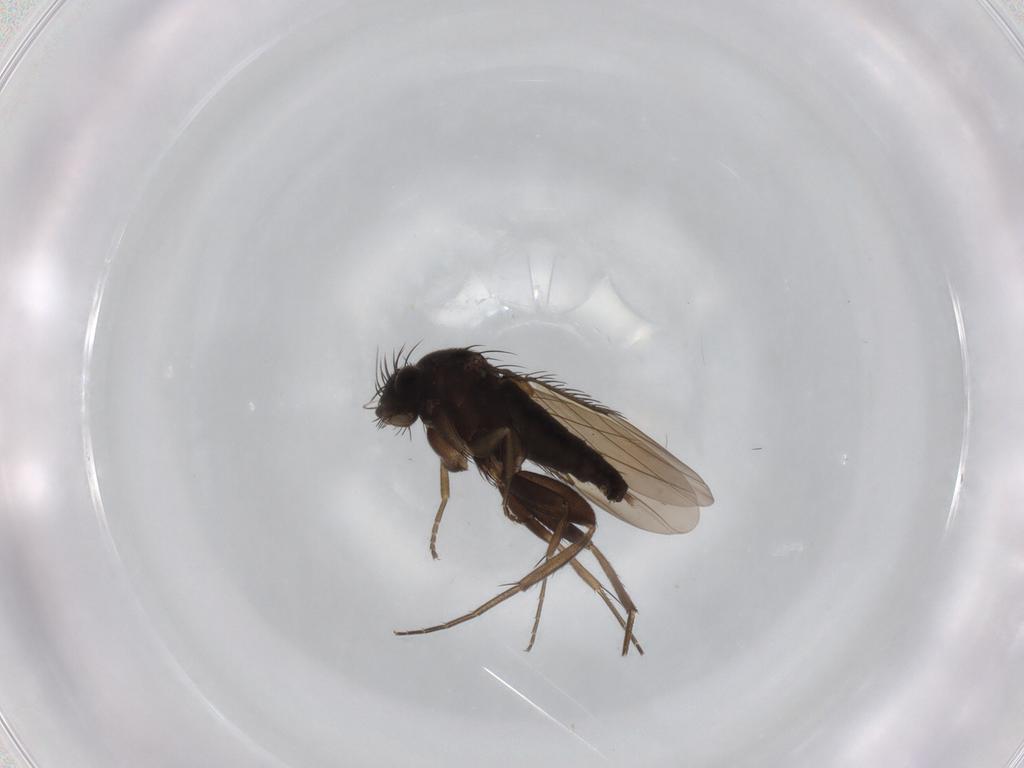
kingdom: Animalia
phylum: Arthropoda
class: Insecta
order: Diptera
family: Phoridae
